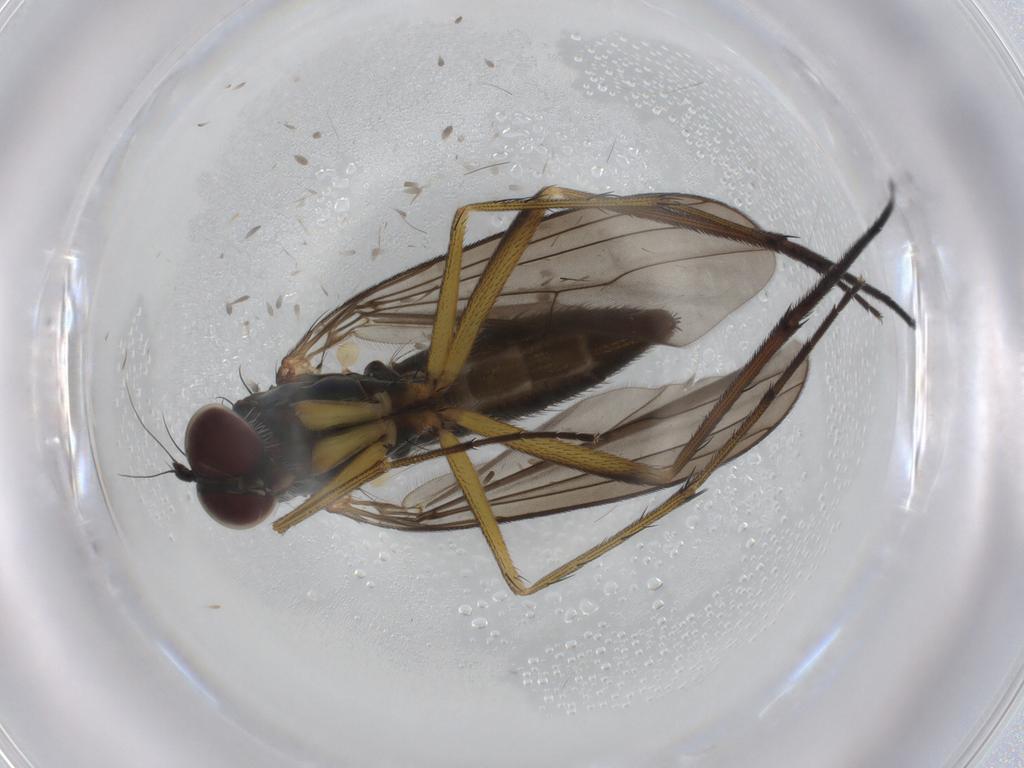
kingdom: Animalia
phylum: Arthropoda
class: Insecta
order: Diptera
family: Dolichopodidae
